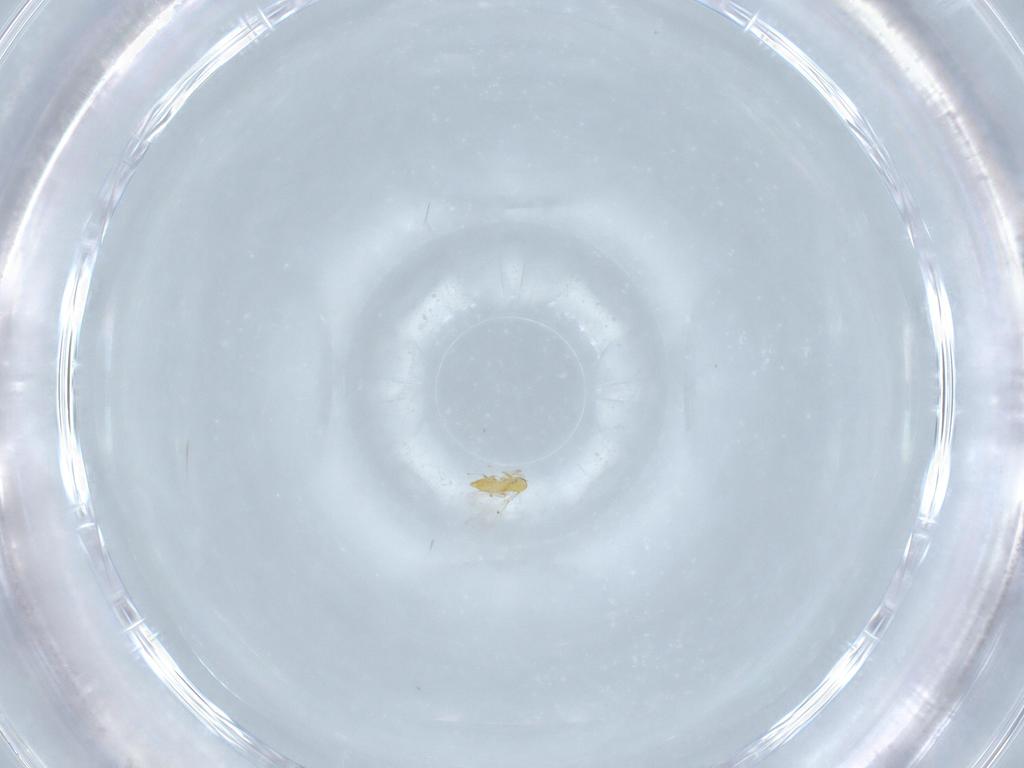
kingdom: Animalia
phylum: Arthropoda
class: Insecta
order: Hymenoptera
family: Trichogrammatidae
